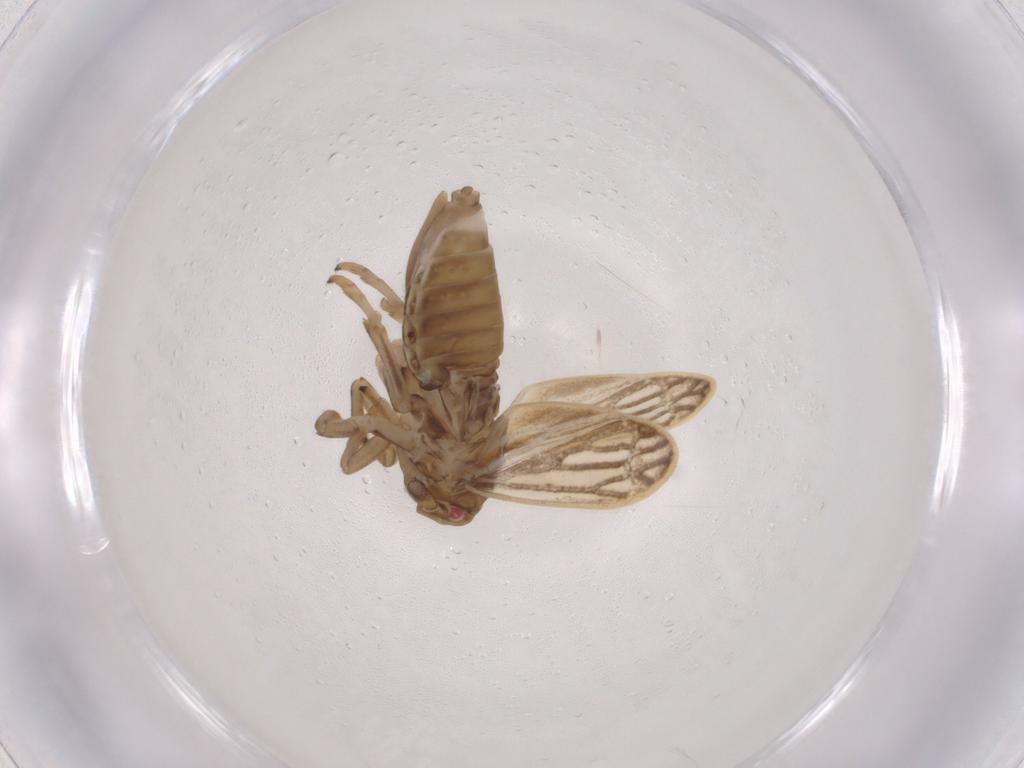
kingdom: Animalia
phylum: Arthropoda
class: Insecta
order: Hemiptera
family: Delphacidae
